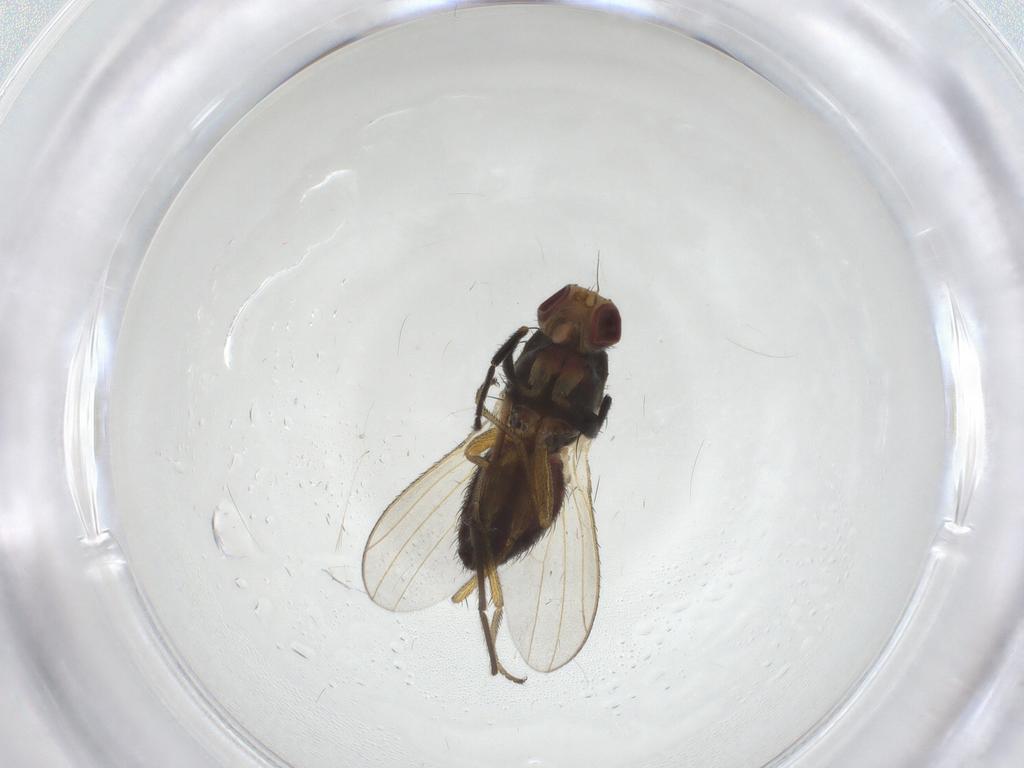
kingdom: Animalia
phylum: Arthropoda
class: Insecta
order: Diptera
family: Heleomyzidae
